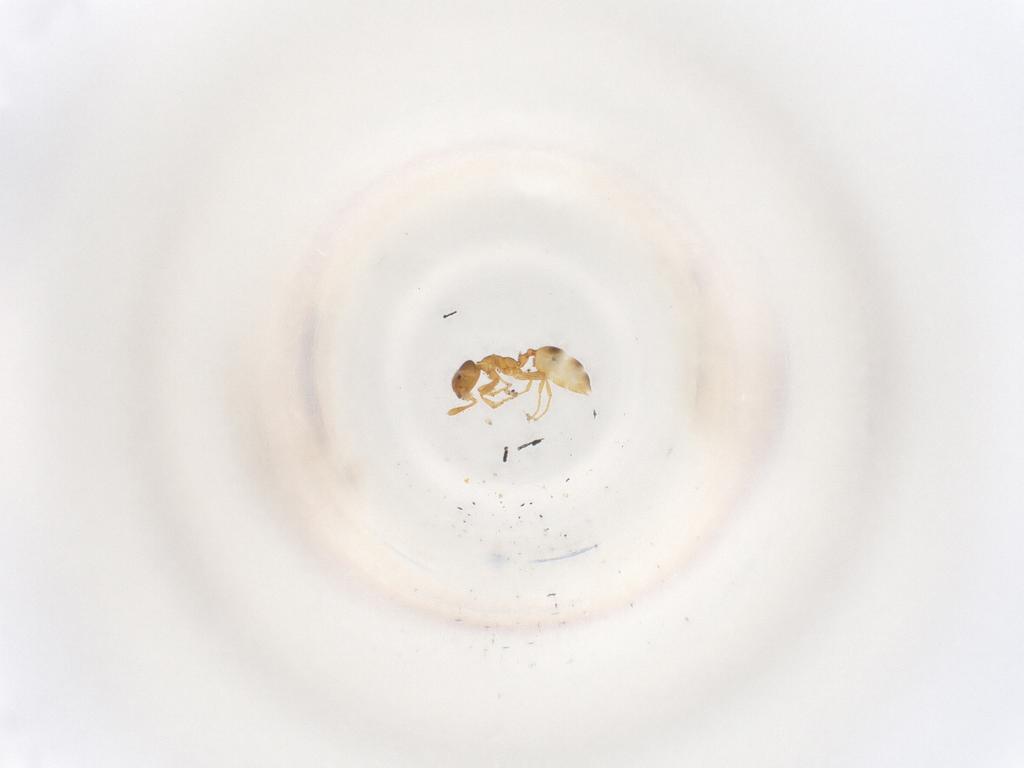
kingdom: Animalia
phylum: Arthropoda
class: Insecta
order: Hymenoptera
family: Formicidae
